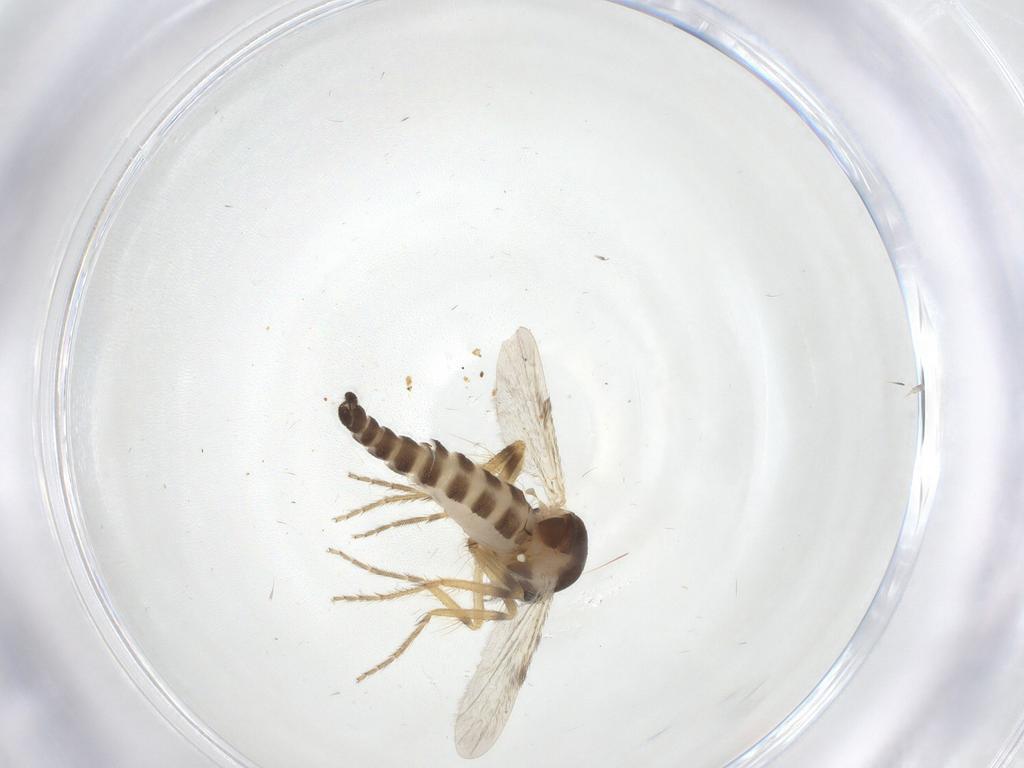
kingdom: Animalia
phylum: Arthropoda
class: Insecta
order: Diptera
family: Ceratopogonidae
